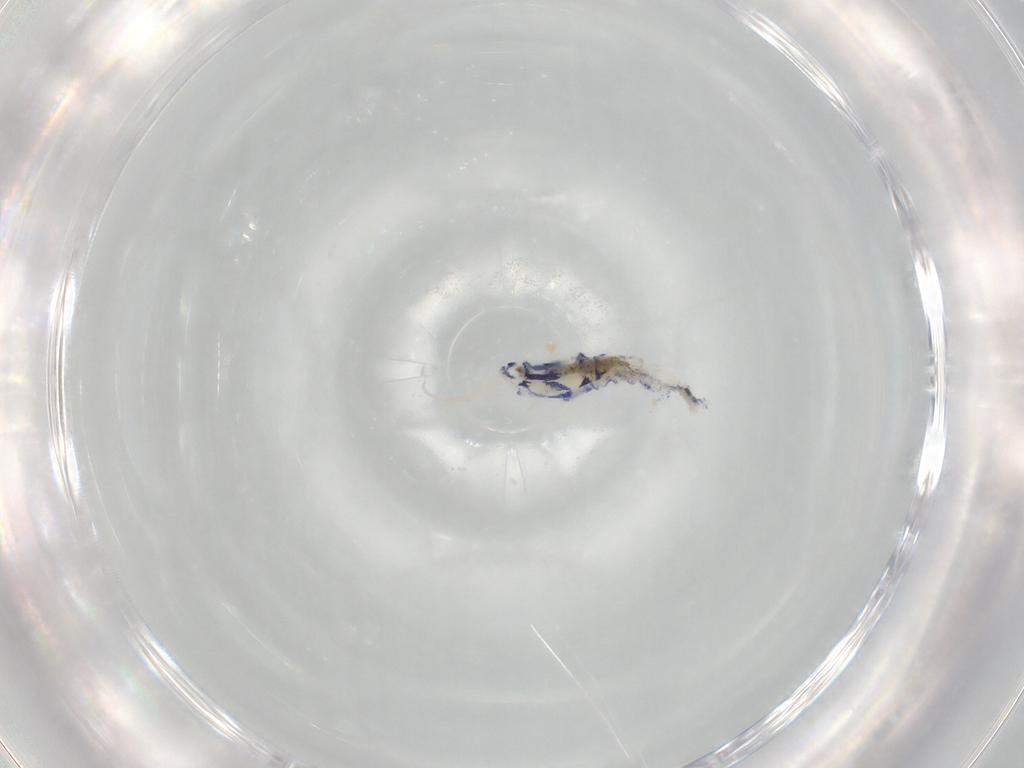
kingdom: Animalia
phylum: Arthropoda
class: Collembola
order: Entomobryomorpha
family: Entomobryidae
